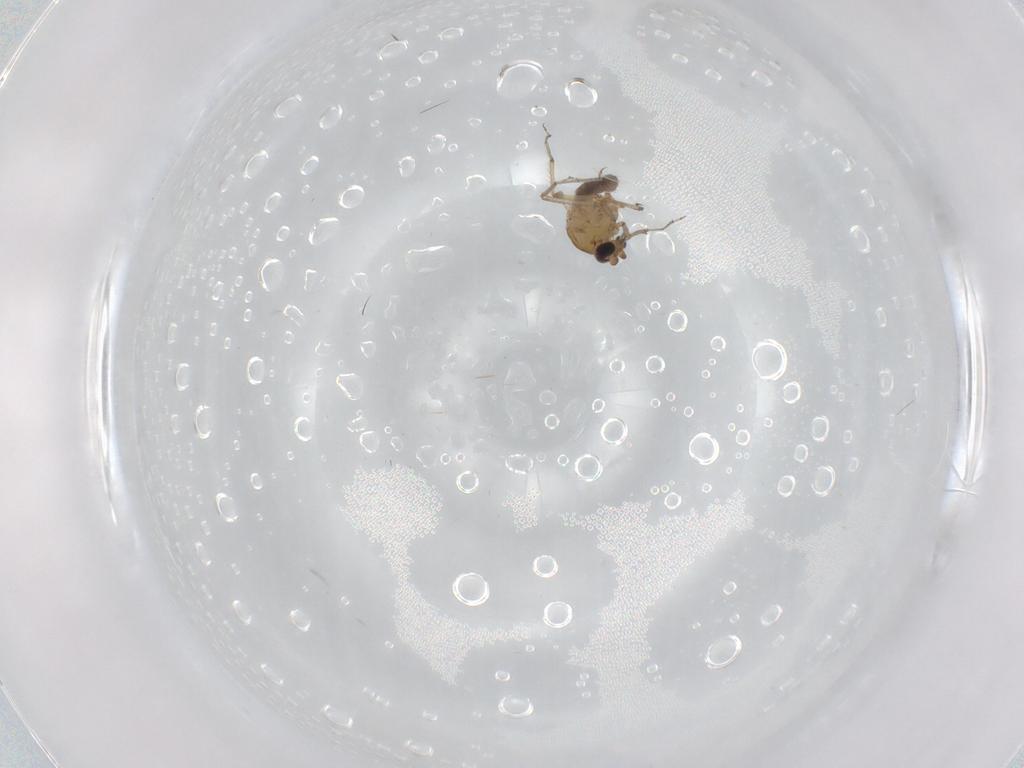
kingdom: Animalia
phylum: Arthropoda
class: Insecta
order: Diptera
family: Ceratopogonidae
